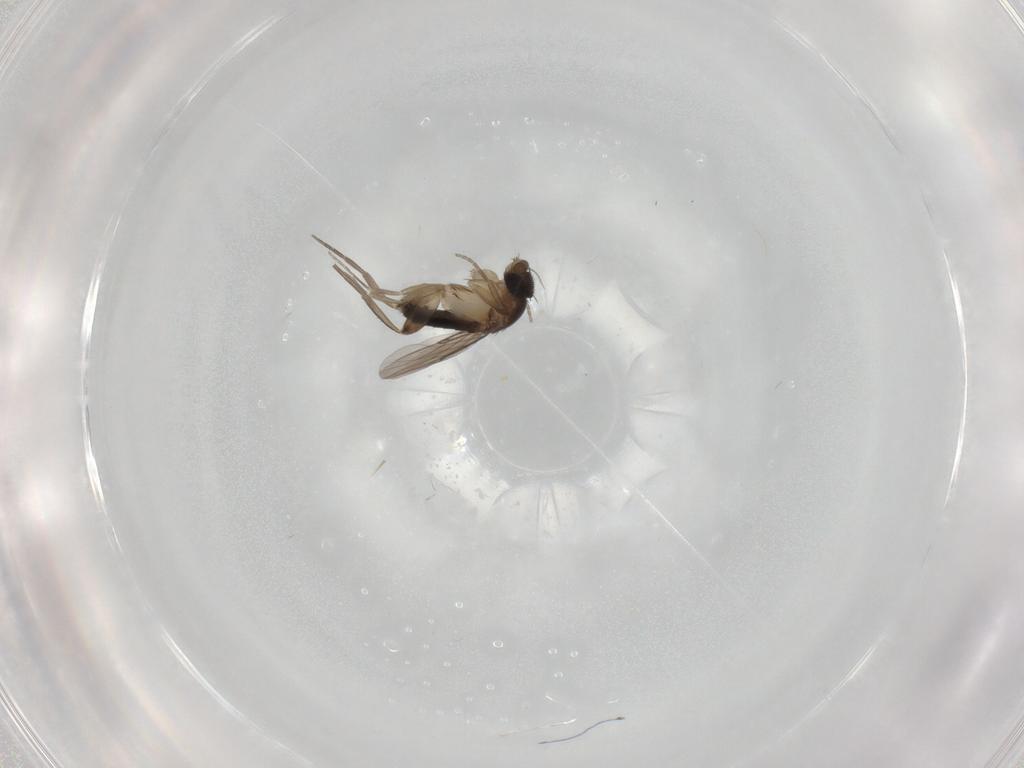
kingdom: Animalia
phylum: Arthropoda
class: Insecta
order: Diptera
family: Phoridae
